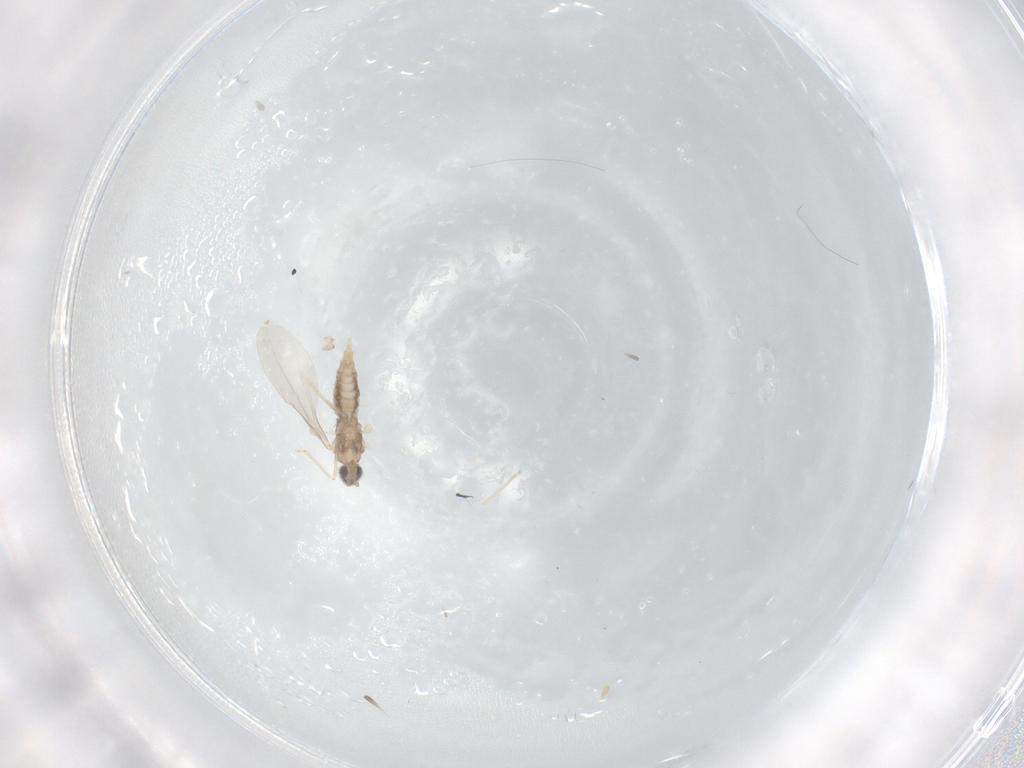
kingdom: Animalia
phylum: Arthropoda
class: Insecta
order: Diptera
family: Cecidomyiidae
